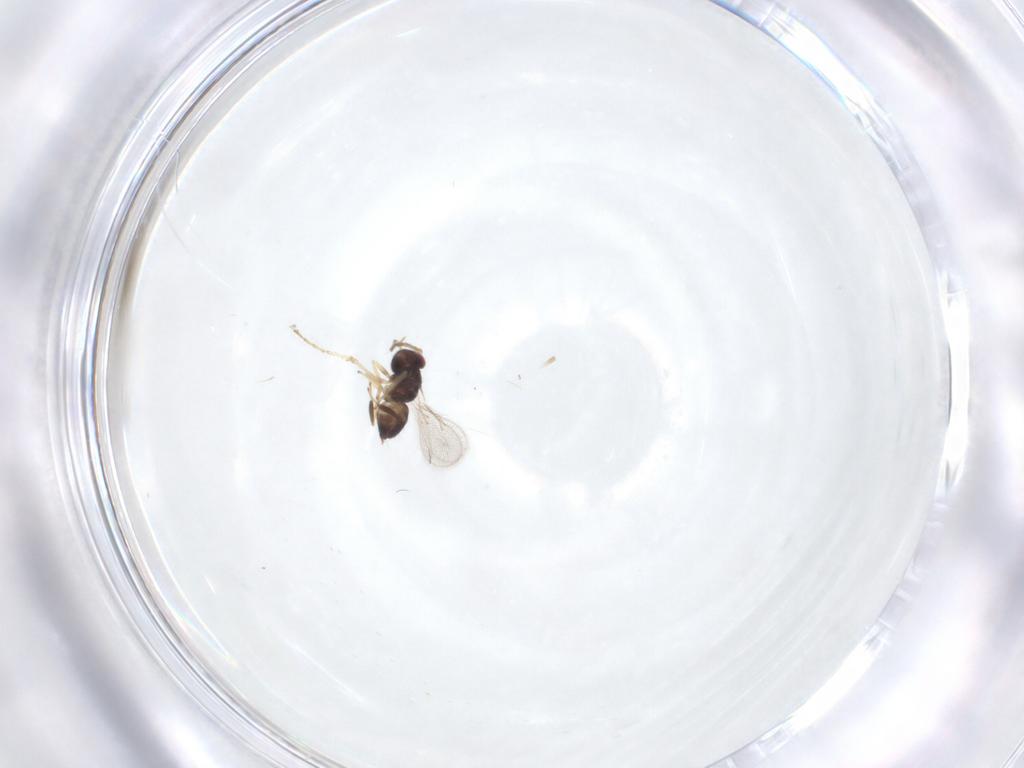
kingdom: Animalia
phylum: Arthropoda
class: Insecta
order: Hymenoptera
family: Eulophidae
